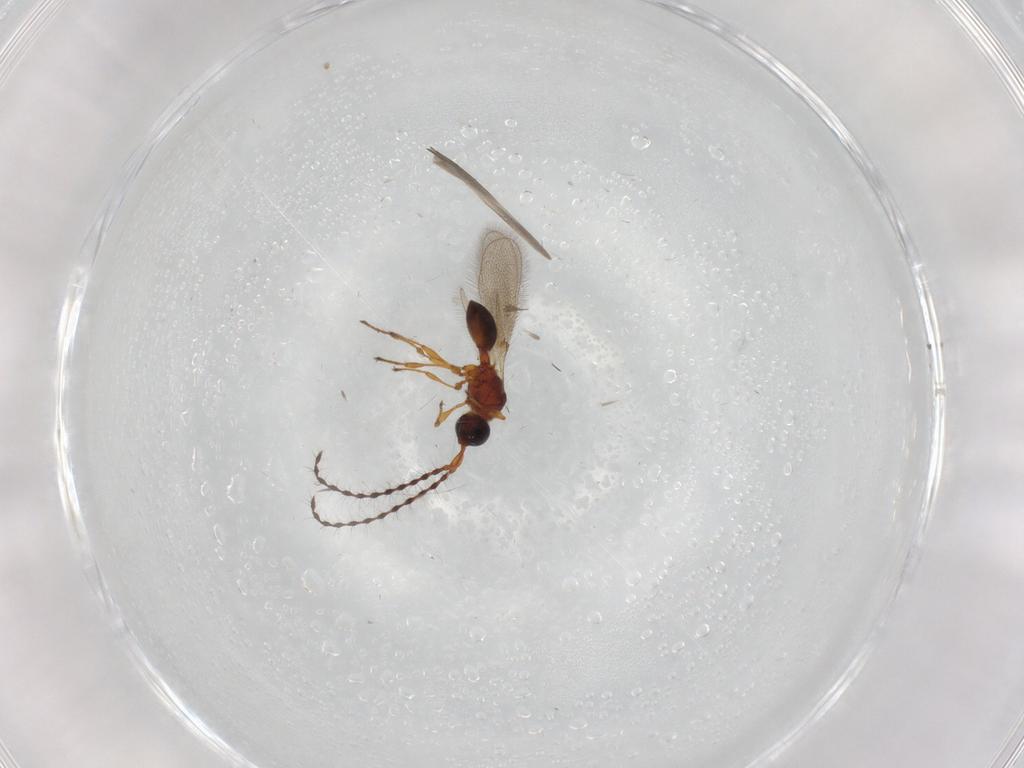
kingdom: Animalia
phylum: Arthropoda
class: Insecta
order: Hymenoptera
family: Diapriidae
